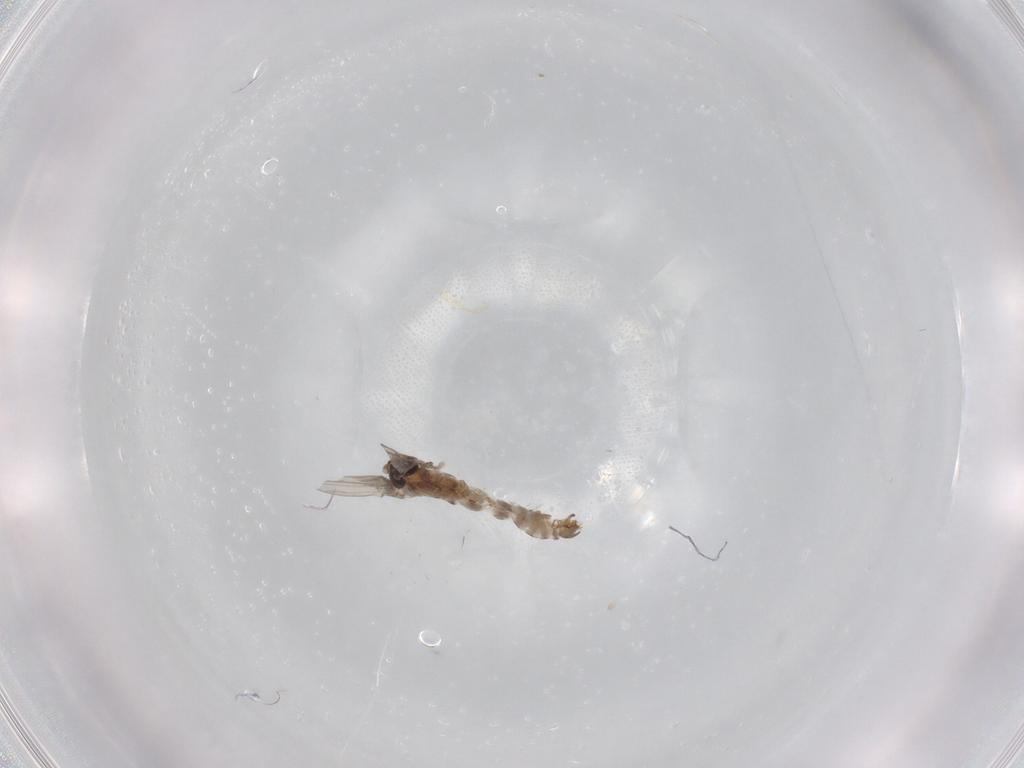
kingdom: Animalia
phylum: Arthropoda
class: Insecta
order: Diptera
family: Psychodidae
